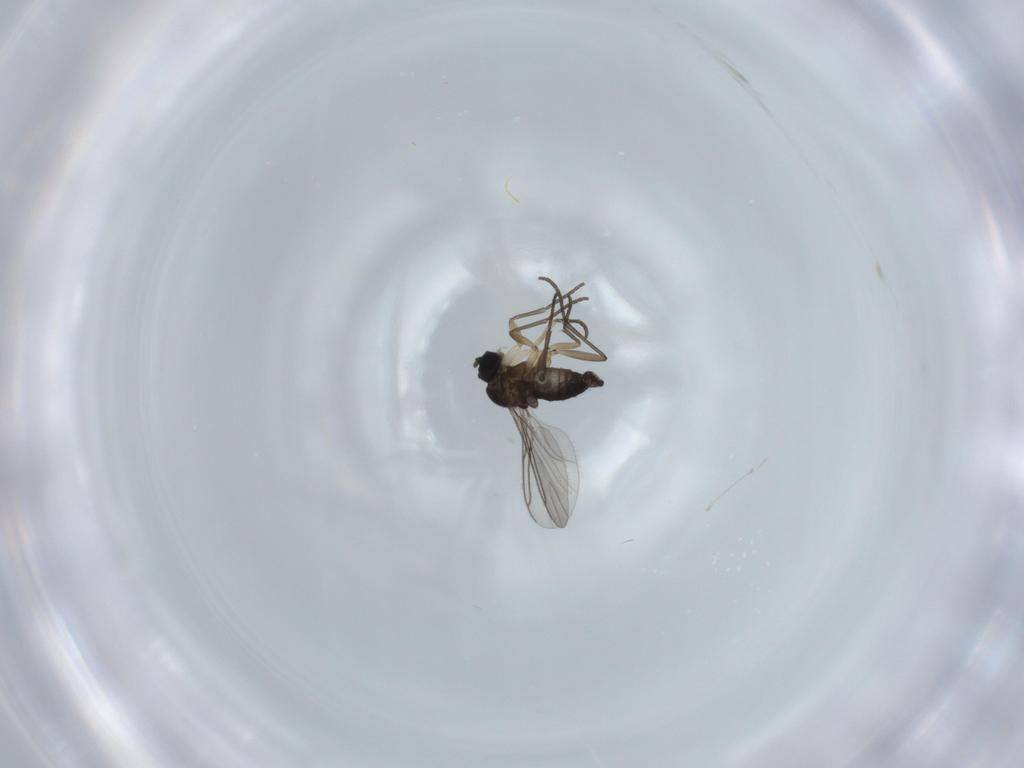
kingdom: Animalia
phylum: Arthropoda
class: Insecta
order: Diptera
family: Sciaridae
